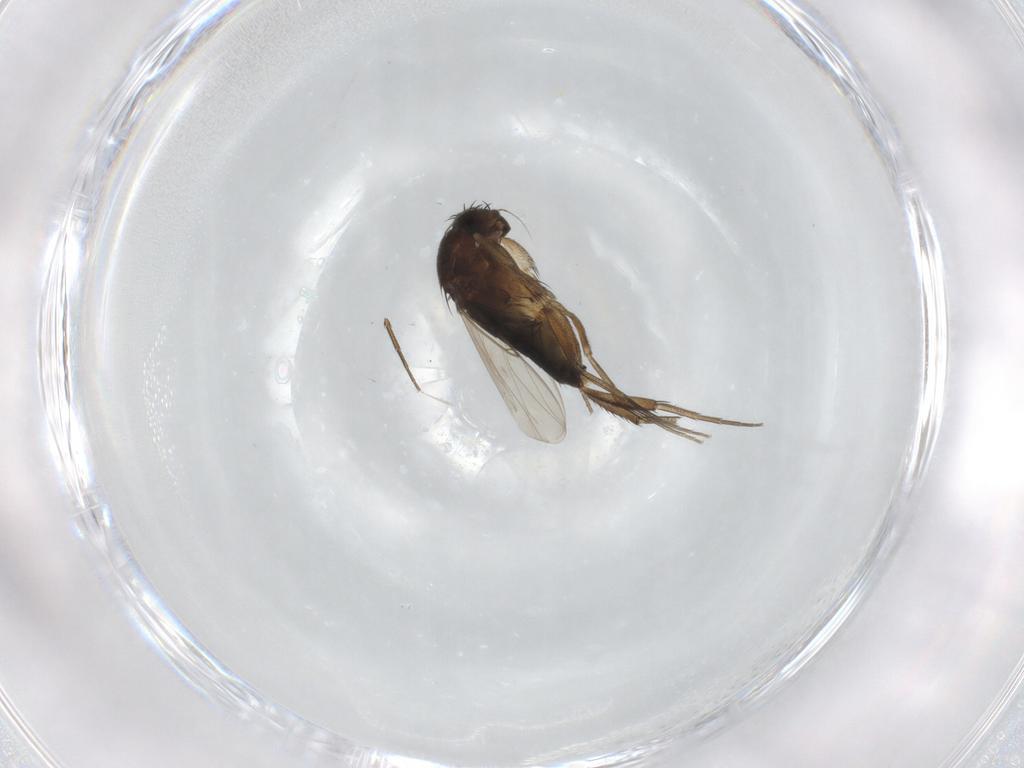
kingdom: Animalia
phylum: Arthropoda
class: Insecta
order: Diptera
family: Phoridae
